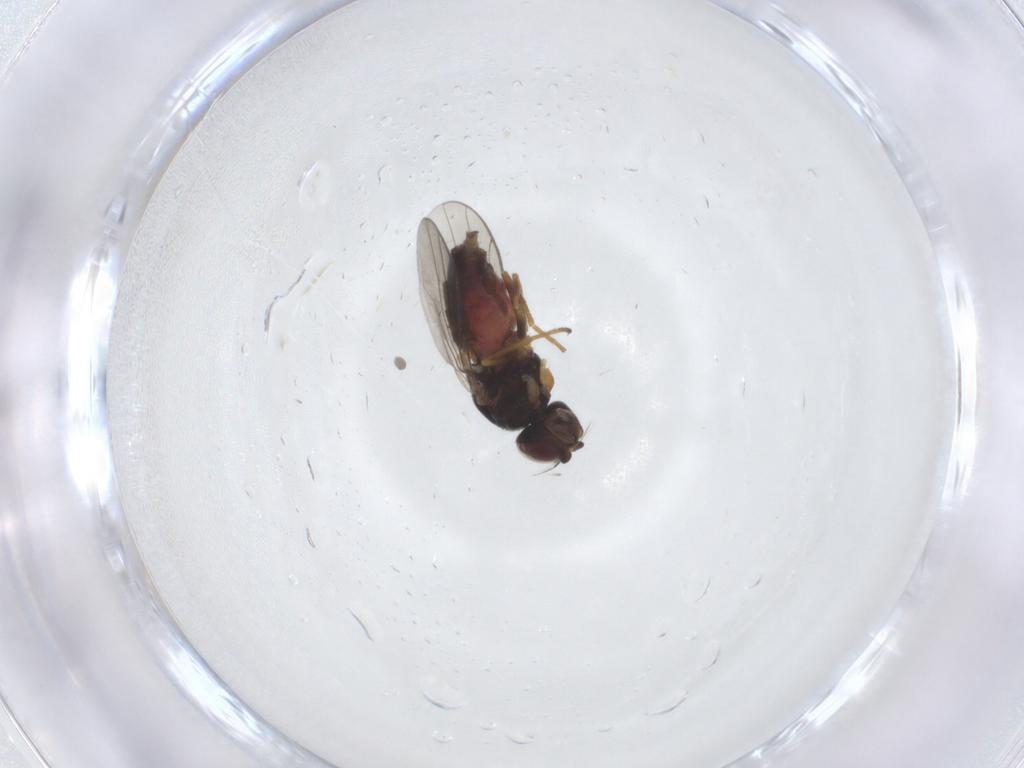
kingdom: Animalia
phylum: Arthropoda
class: Insecta
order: Diptera
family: Chloropidae
